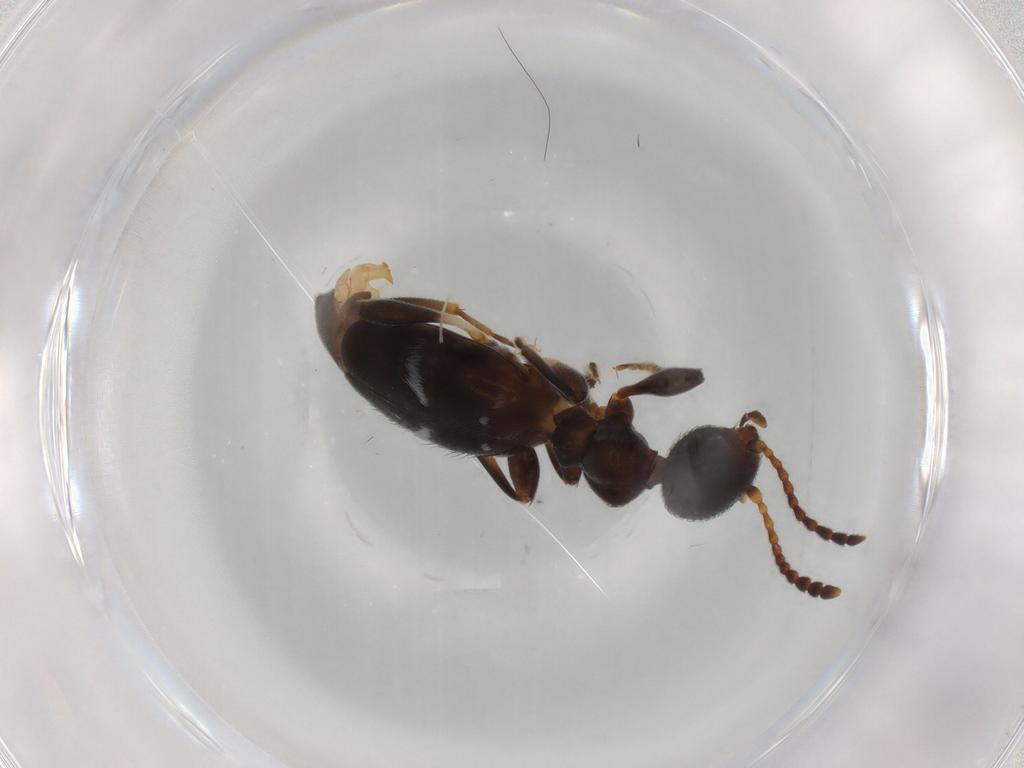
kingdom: Animalia
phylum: Arthropoda
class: Insecta
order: Coleoptera
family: Anthicidae
